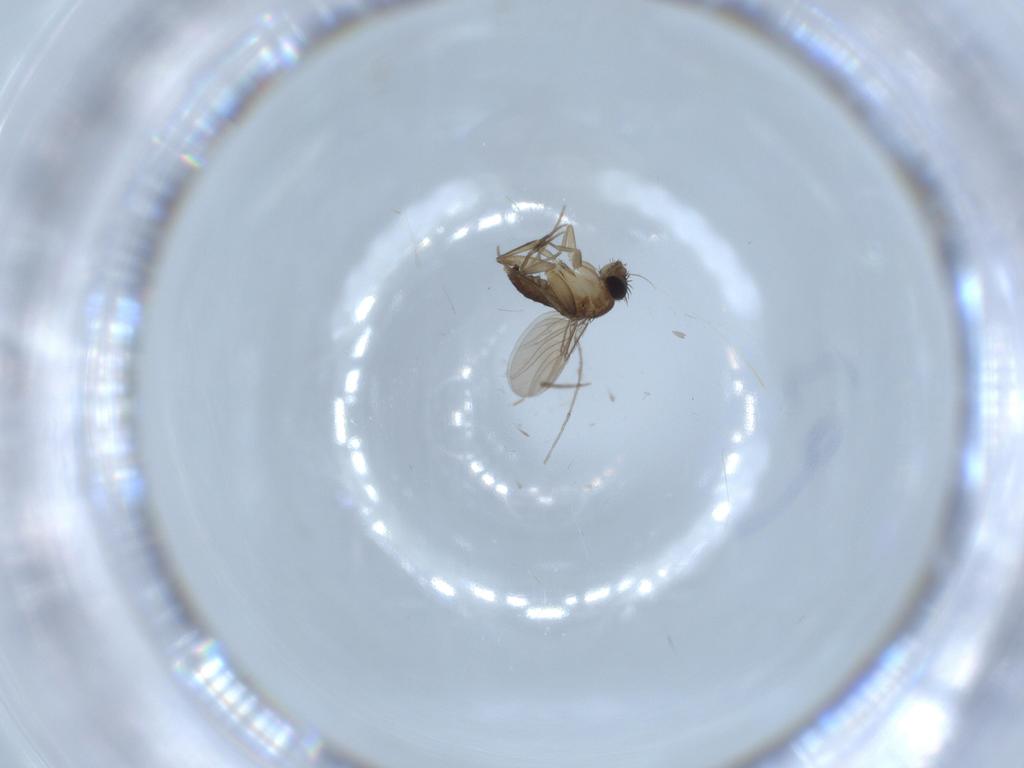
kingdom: Animalia
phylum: Arthropoda
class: Insecta
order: Diptera
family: Phoridae
